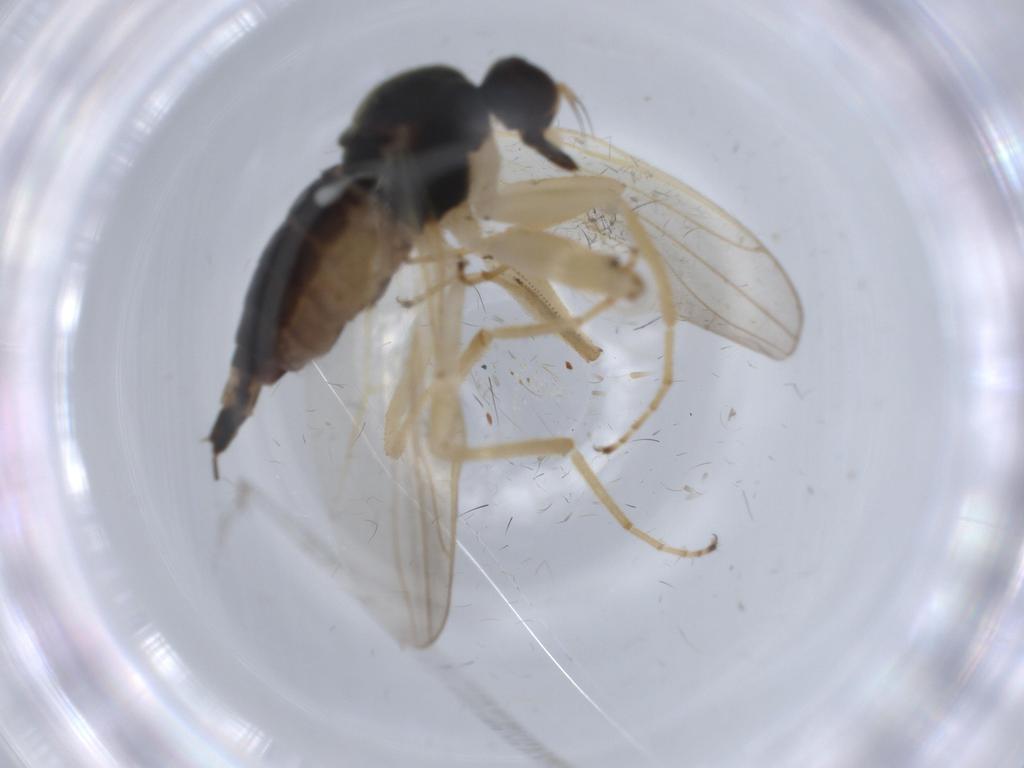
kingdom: Animalia
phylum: Arthropoda
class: Insecta
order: Diptera
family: Hybotidae
